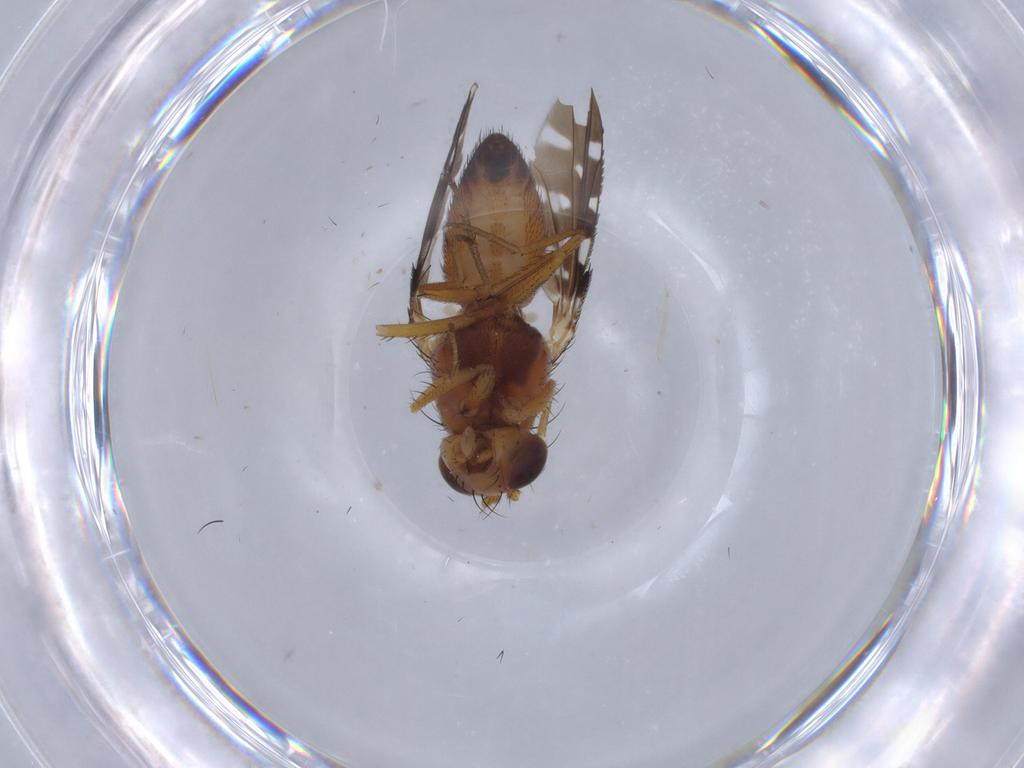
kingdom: Animalia
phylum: Arthropoda
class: Insecta
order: Diptera
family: Ephydridae
